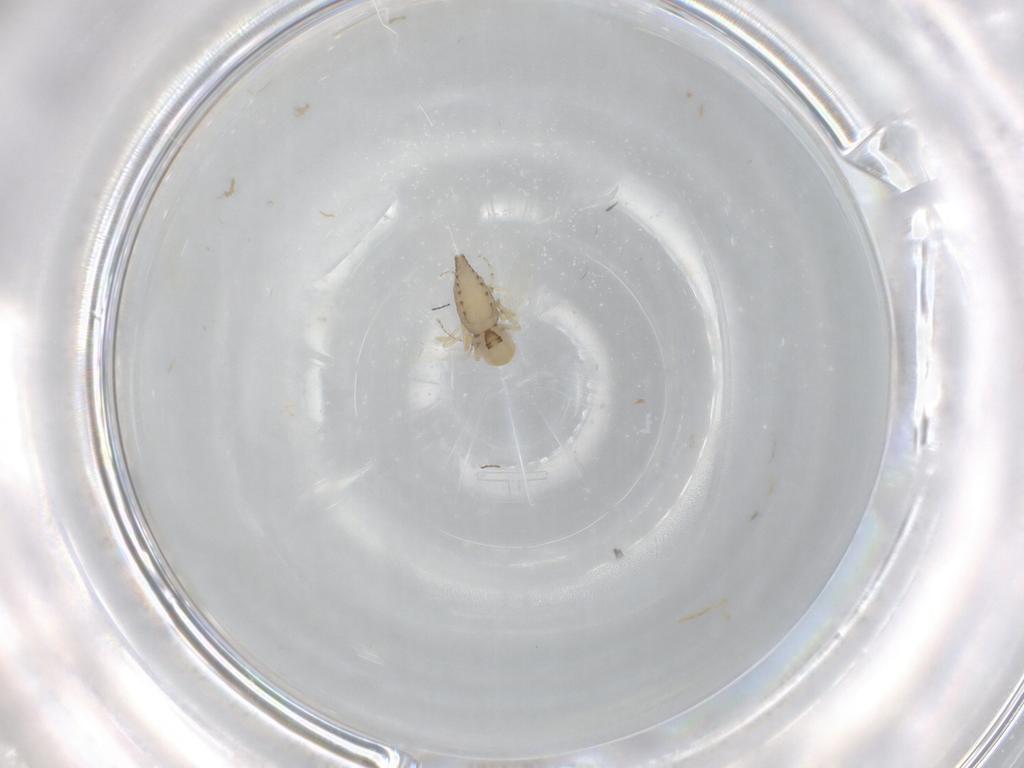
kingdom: Animalia
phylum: Arthropoda
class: Insecta
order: Diptera
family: Ceratopogonidae
